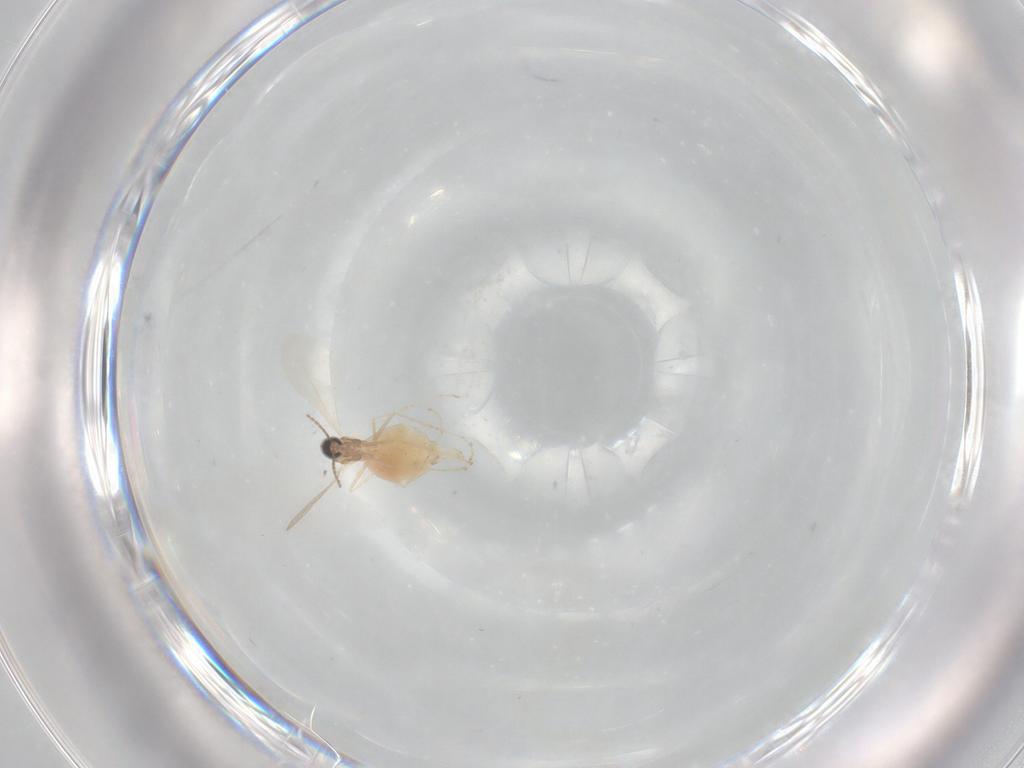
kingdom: Animalia
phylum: Arthropoda
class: Insecta
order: Diptera
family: Cecidomyiidae
